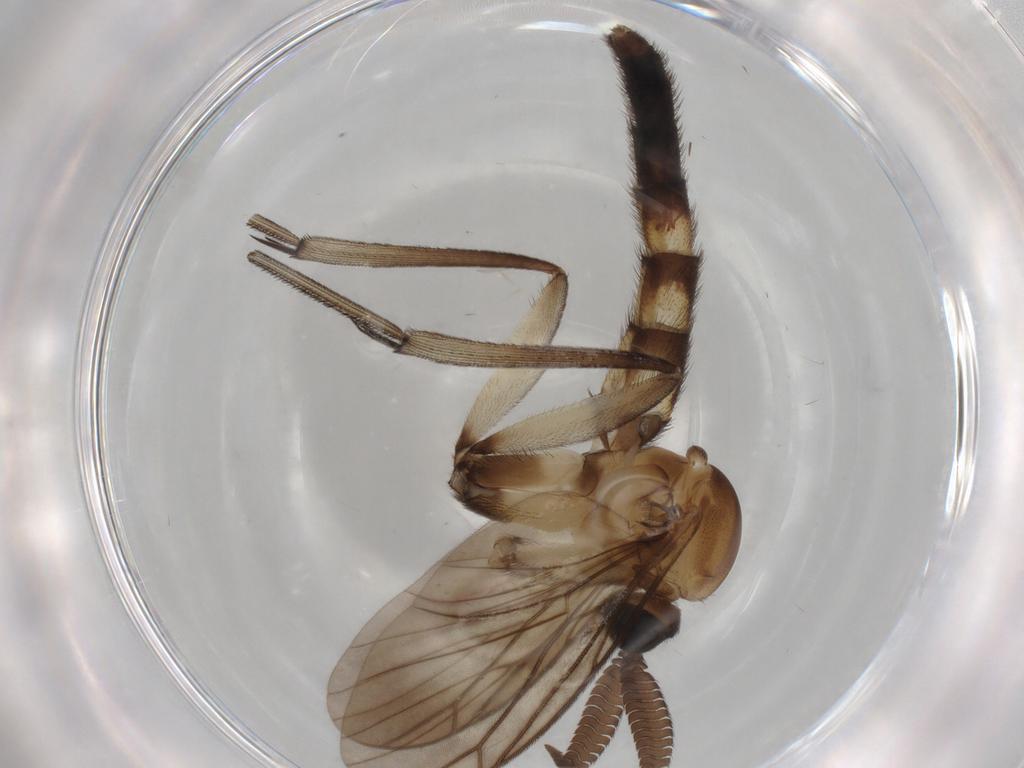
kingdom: Animalia
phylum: Arthropoda
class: Insecta
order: Diptera
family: Cecidomyiidae
